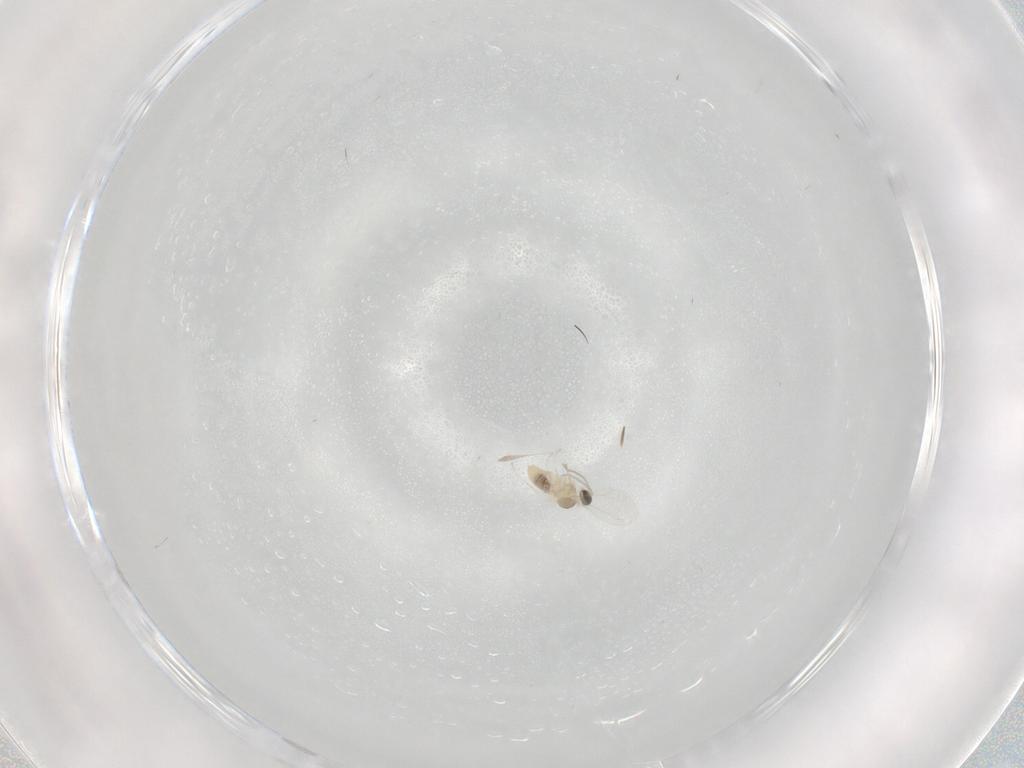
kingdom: Animalia
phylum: Arthropoda
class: Insecta
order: Diptera
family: Cecidomyiidae
